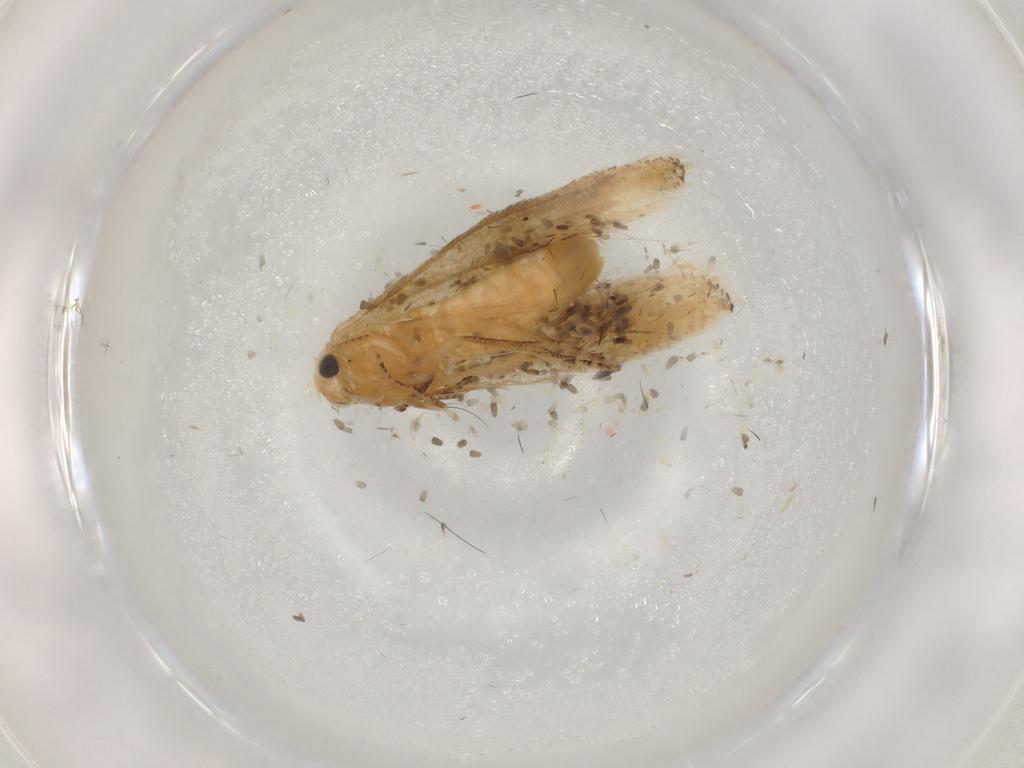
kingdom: Animalia
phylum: Arthropoda
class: Insecta
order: Lepidoptera
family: Bucculatricidae
